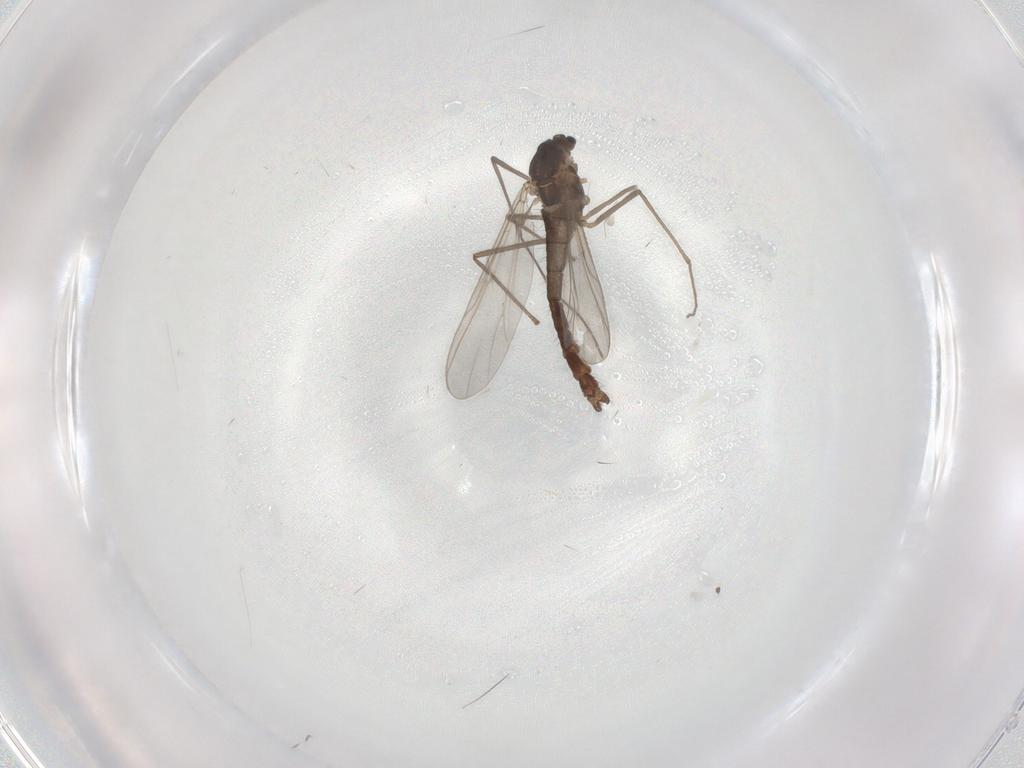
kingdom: Animalia
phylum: Arthropoda
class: Insecta
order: Diptera
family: Chironomidae
